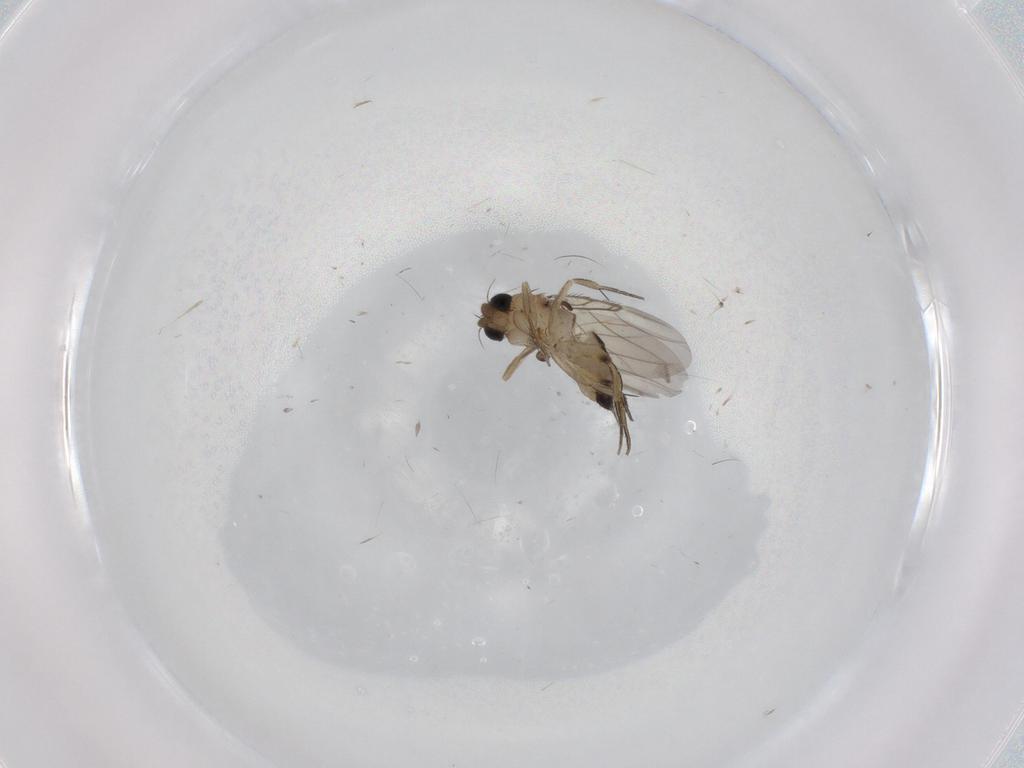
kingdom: Animalia
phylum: Arthropoda
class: Insecta
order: Diptera
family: Phoridae
